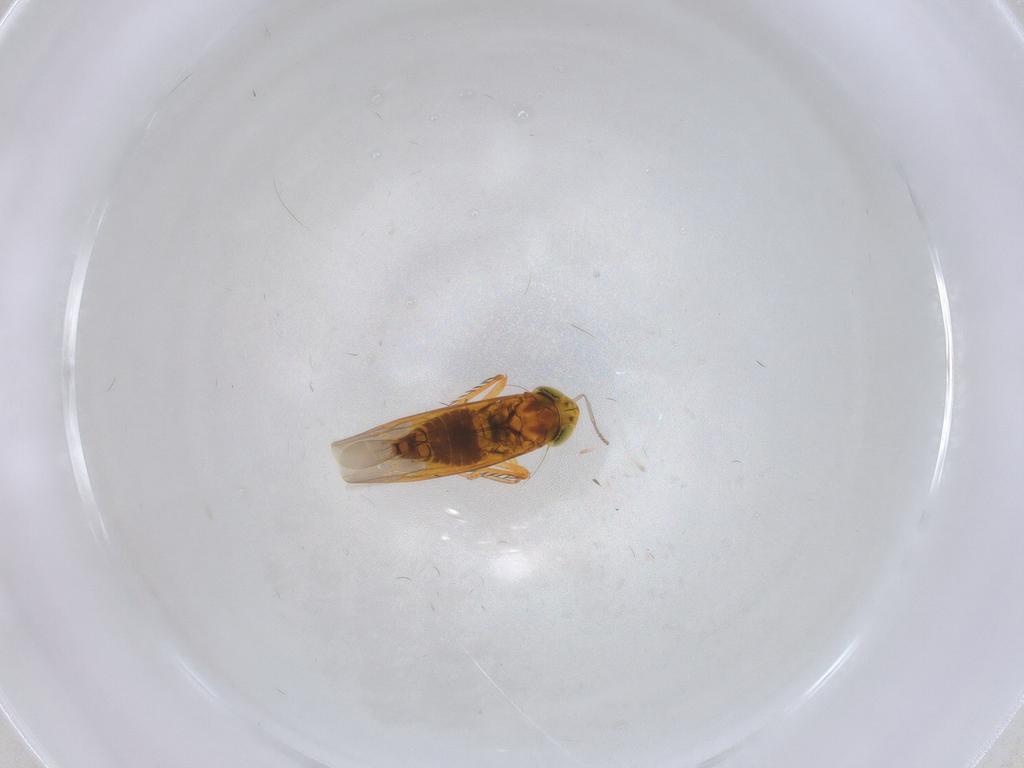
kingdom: Animalia
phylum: Arthropoda
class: Insecta
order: Hemiptera
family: Cicadellidae
